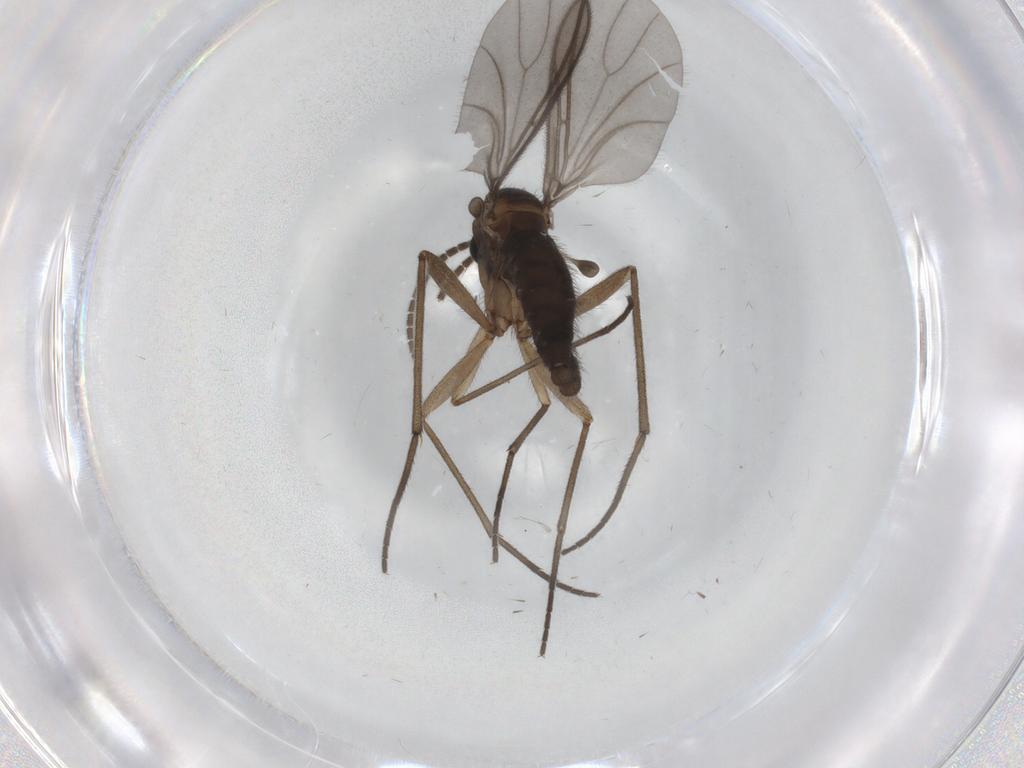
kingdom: Animalia
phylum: Arthropoda
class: Insecta
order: Diptera
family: Sciaridae
